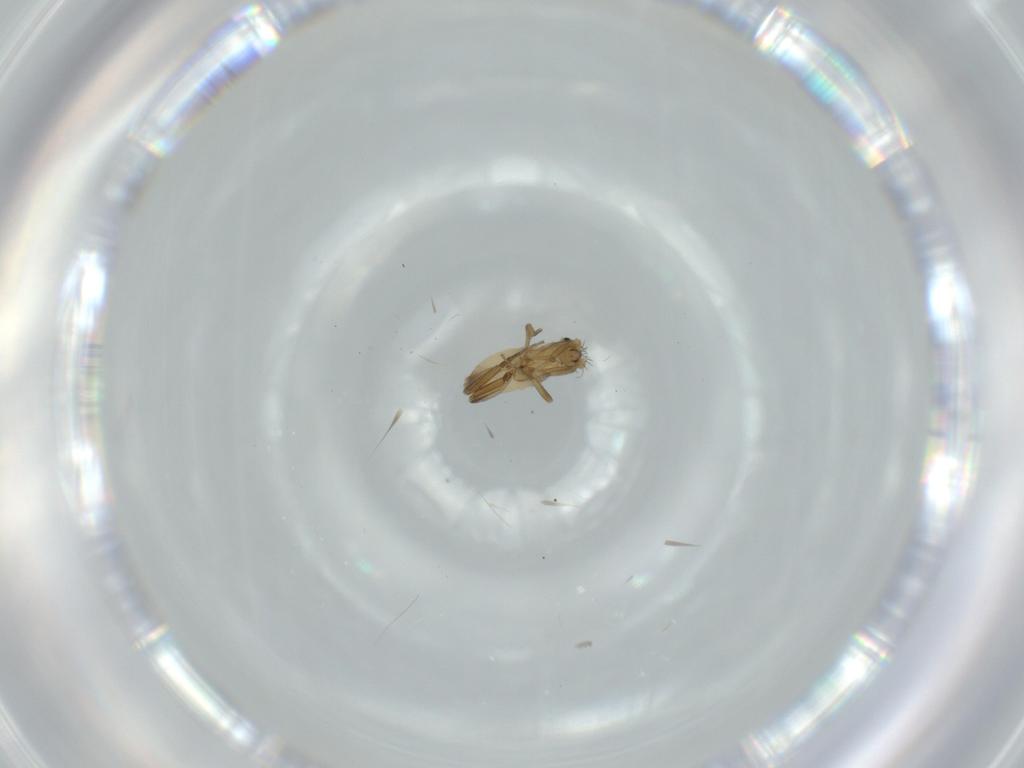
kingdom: Animalia
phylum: Arthropoda
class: Insecta
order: Diptera
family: Phoridae
